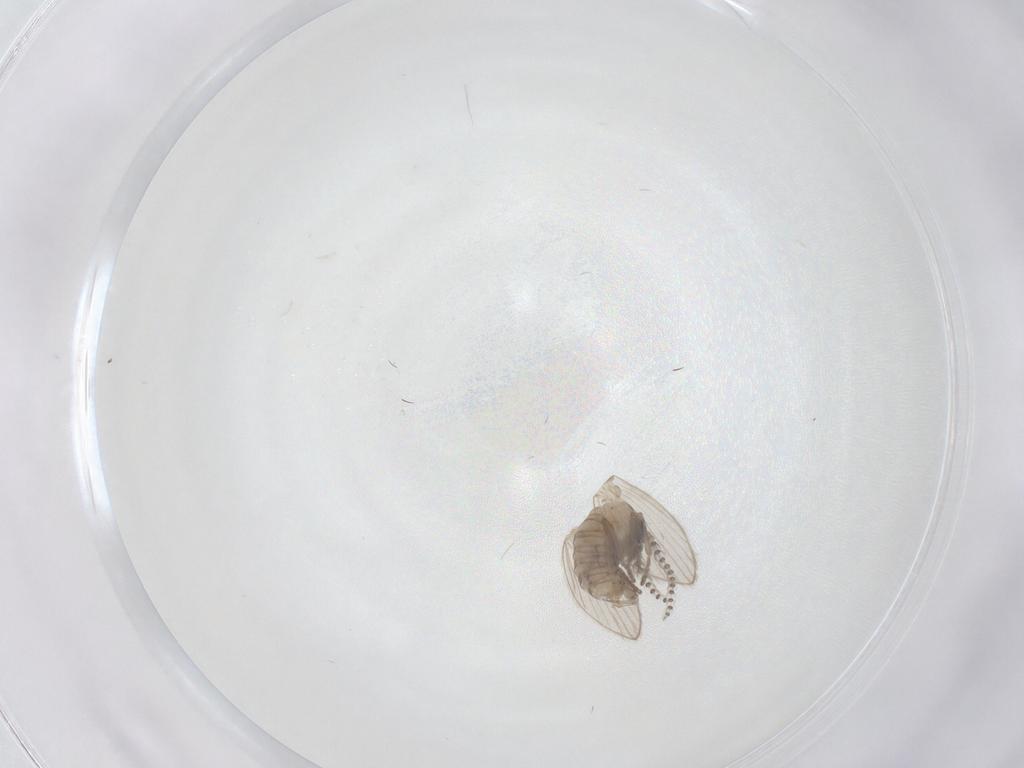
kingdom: Animalia
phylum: Arthropoda
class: Insecta
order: Diptera
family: Psychodidae
